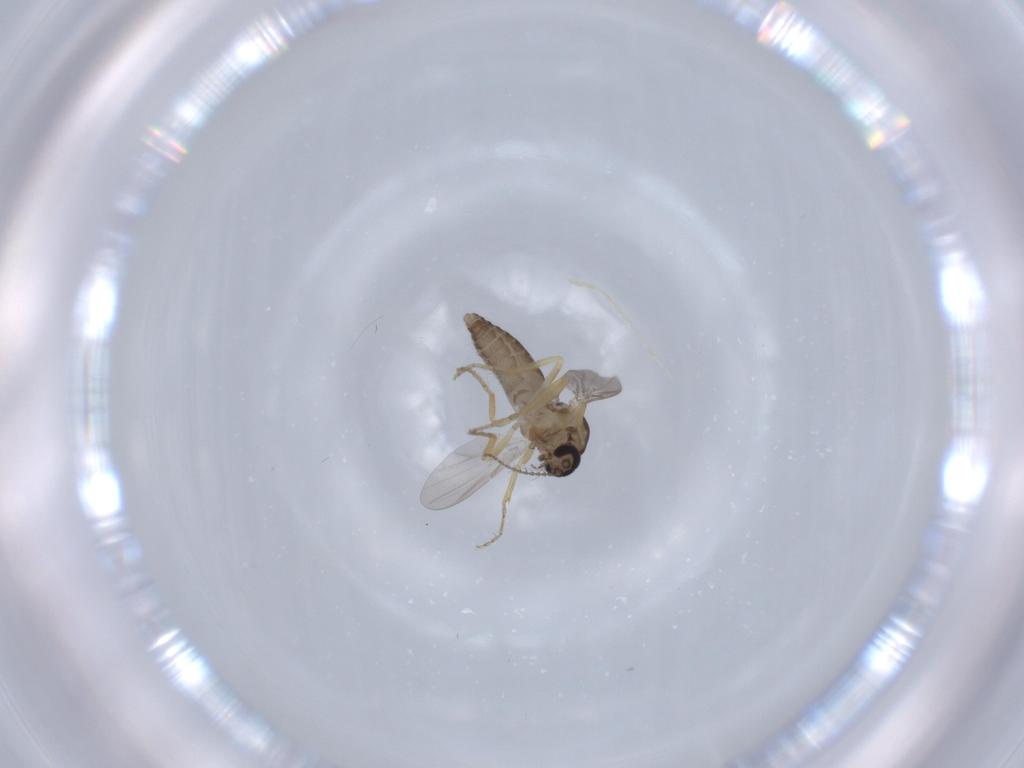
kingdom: Animalia
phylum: Arthropoda
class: Insecta
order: Diptera
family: Ceratopogonidae
